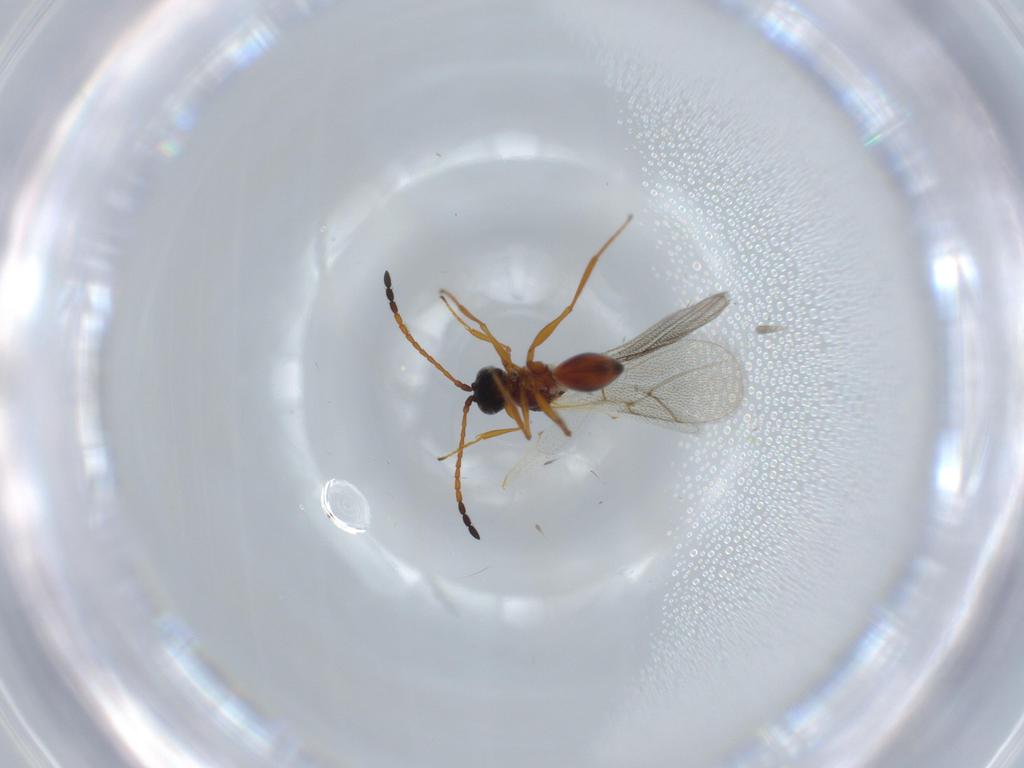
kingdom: Animalia
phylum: Arthropoda
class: Insecta
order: Hymenoptera
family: Figitidae
